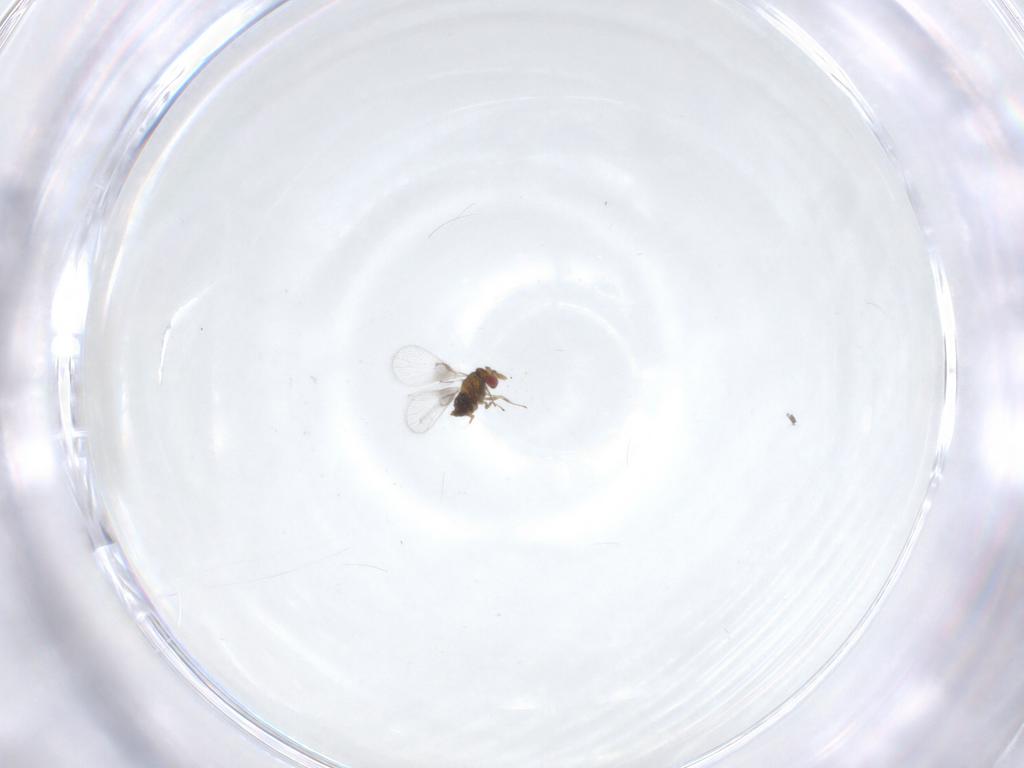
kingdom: Animalia
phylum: Arthropoda
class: Insecta
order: Hymenoptera
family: Trichogrammatidae
